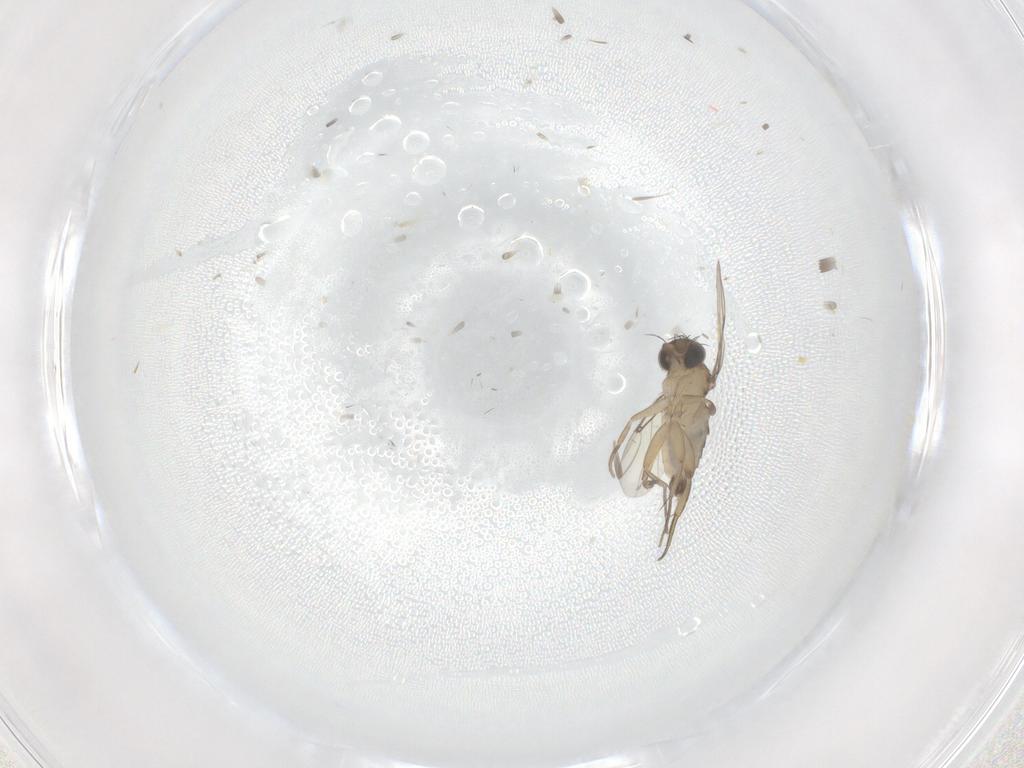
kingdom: Animalia
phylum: Arthropoda
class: Insecta
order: Diptera
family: Phoridae
